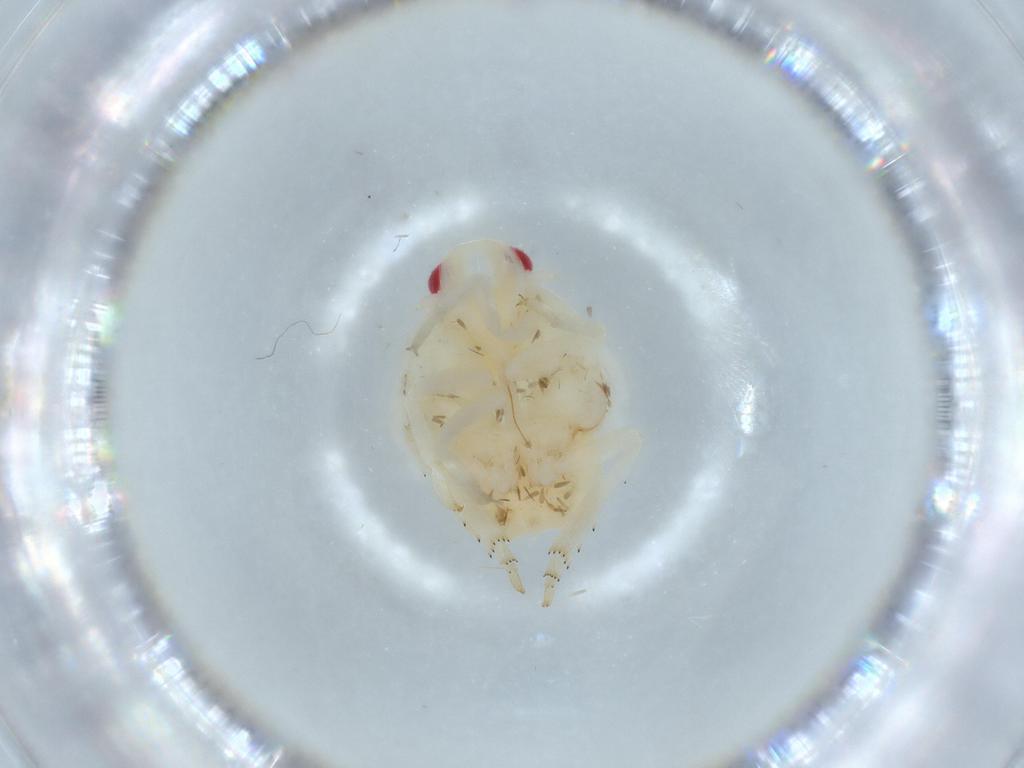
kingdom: Animalia
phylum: Arthropoda
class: Insecta
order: Hemiptera
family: Flatidae
